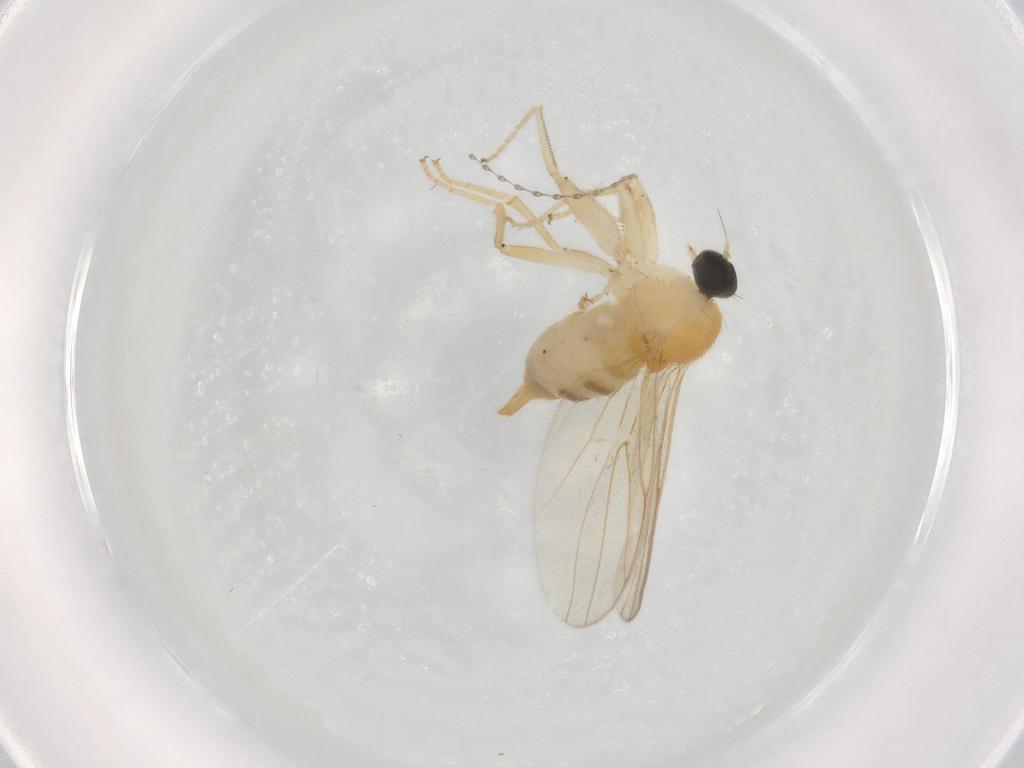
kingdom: Animalia
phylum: Arthropoda
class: Insecta
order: Diptera
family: Ceratopogonidae
